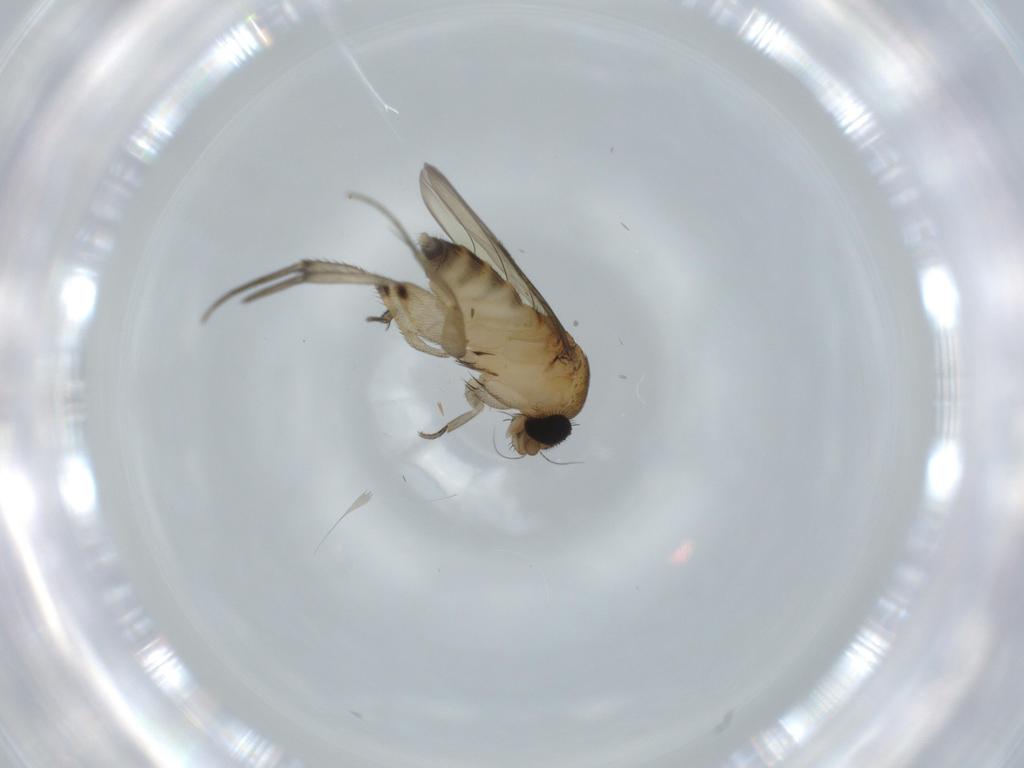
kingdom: Animalia
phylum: Arthropoda
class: Insecta
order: Diptera
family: Phoridae
